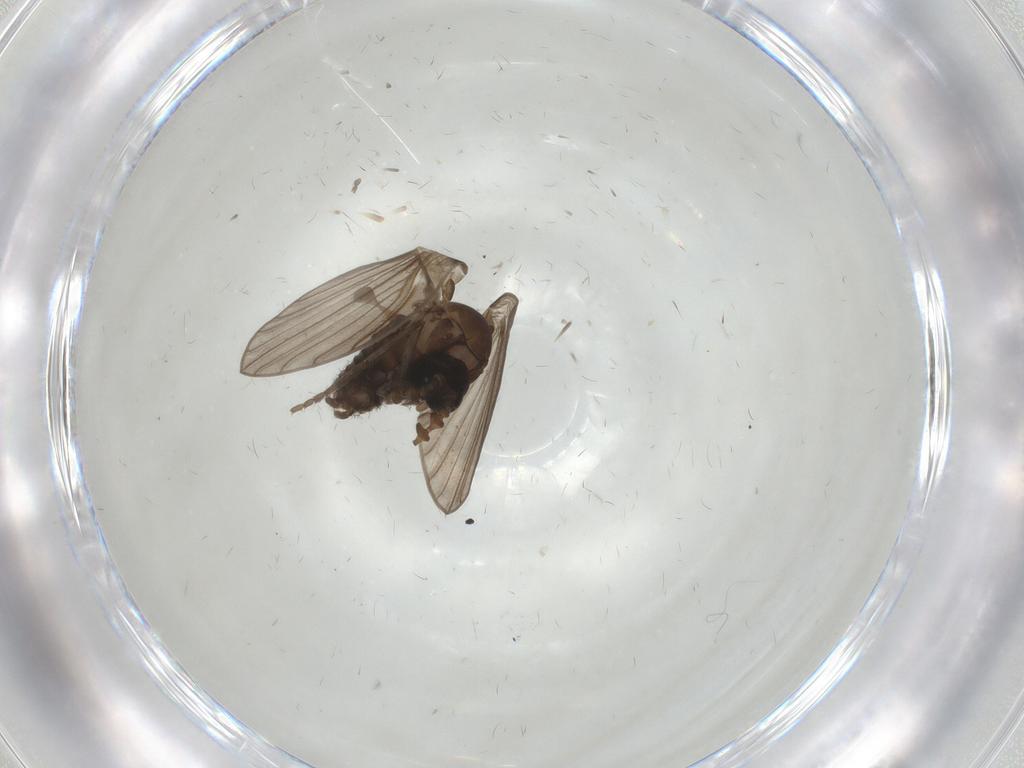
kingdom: Animalia
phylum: Arthropoda
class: Insecta
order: Diptera
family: Psychodidae
